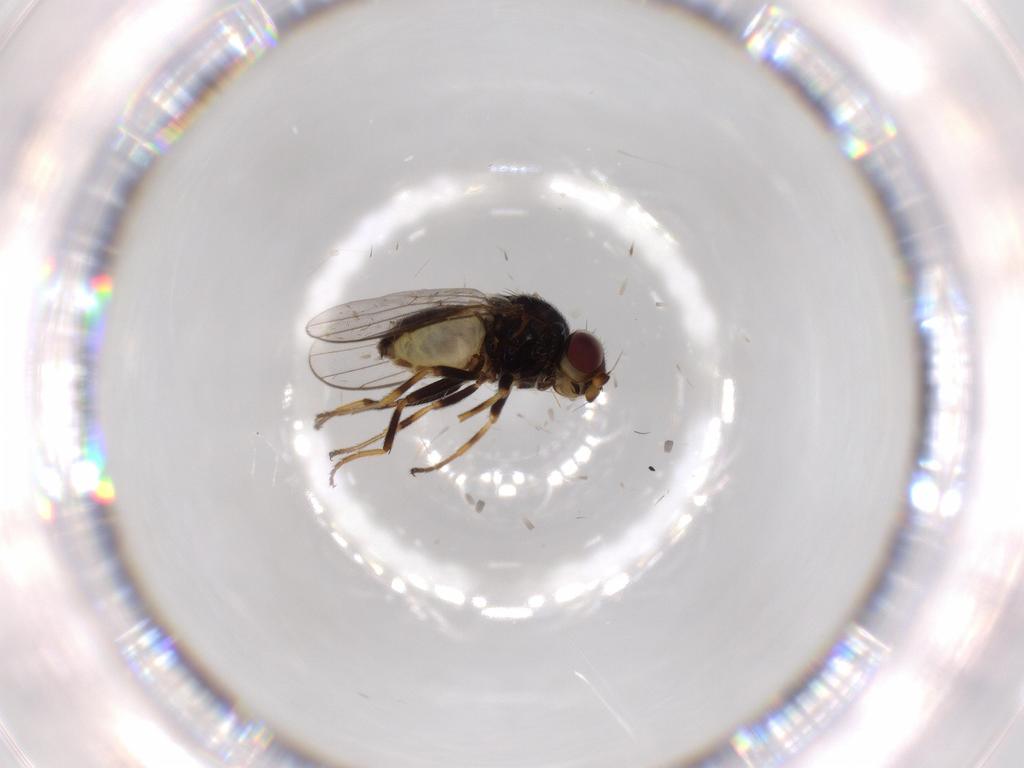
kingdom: Animalia
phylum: Arthropoda
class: Insecta
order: Diptera
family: Chloropidae
